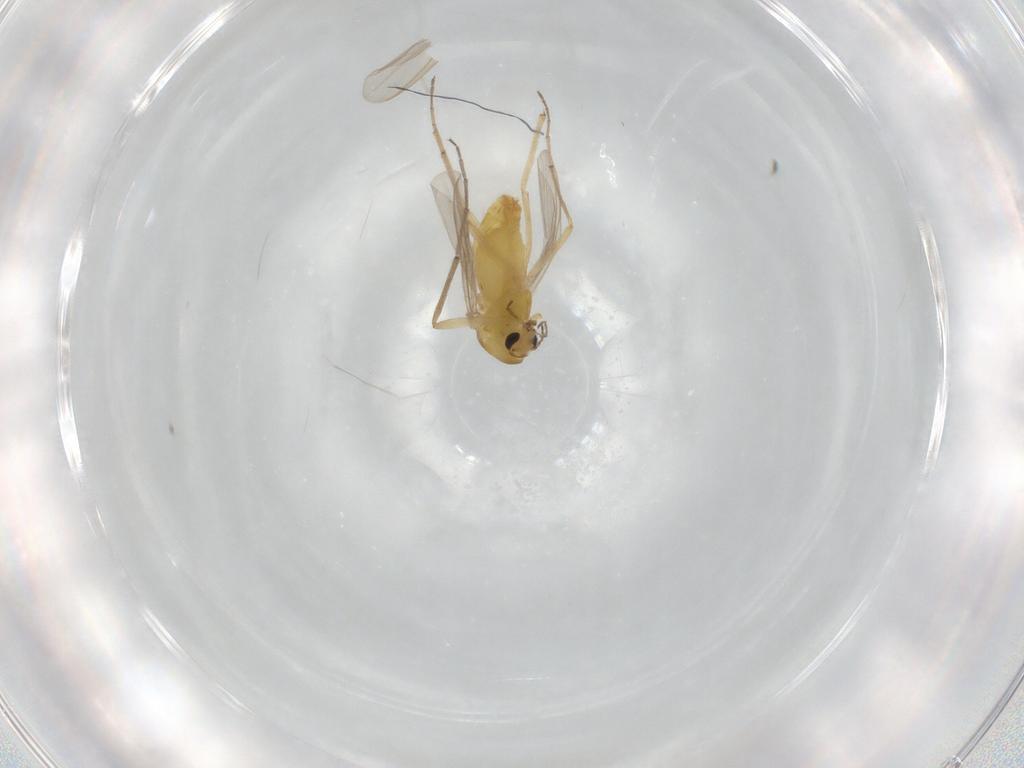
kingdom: Animalia
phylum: Arthropoda
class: Insecta
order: Diptera
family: Chironomidae
